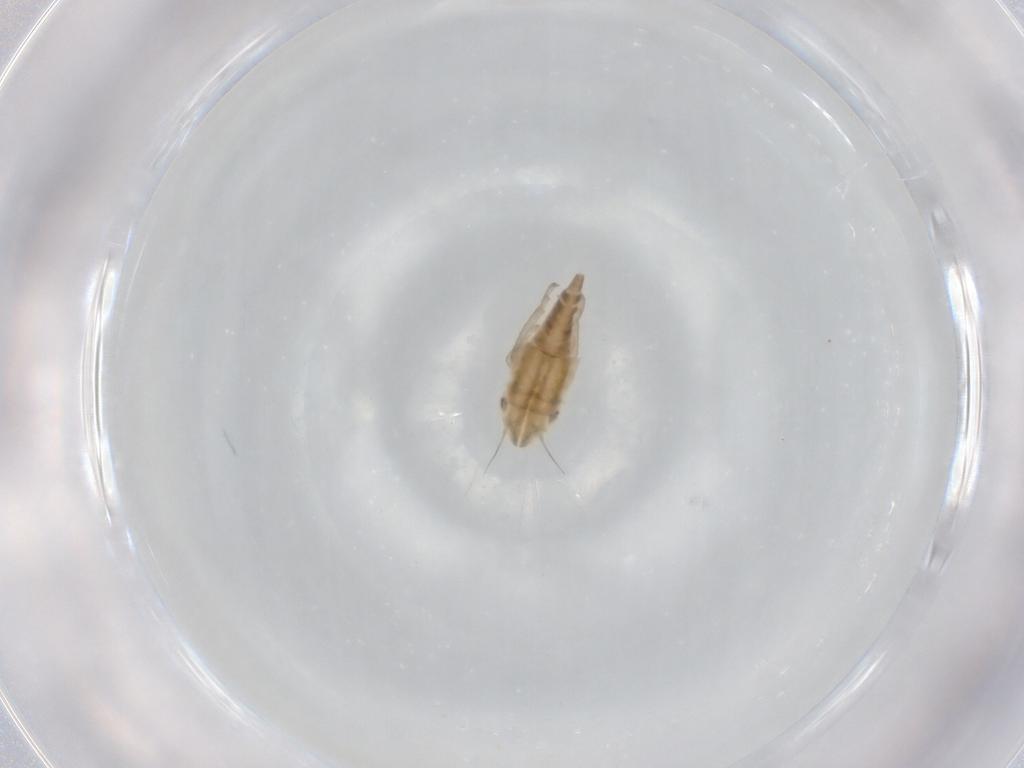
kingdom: Animalia
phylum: Arthropoda
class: Insecta
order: Hemiptera
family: Cicadellidae
